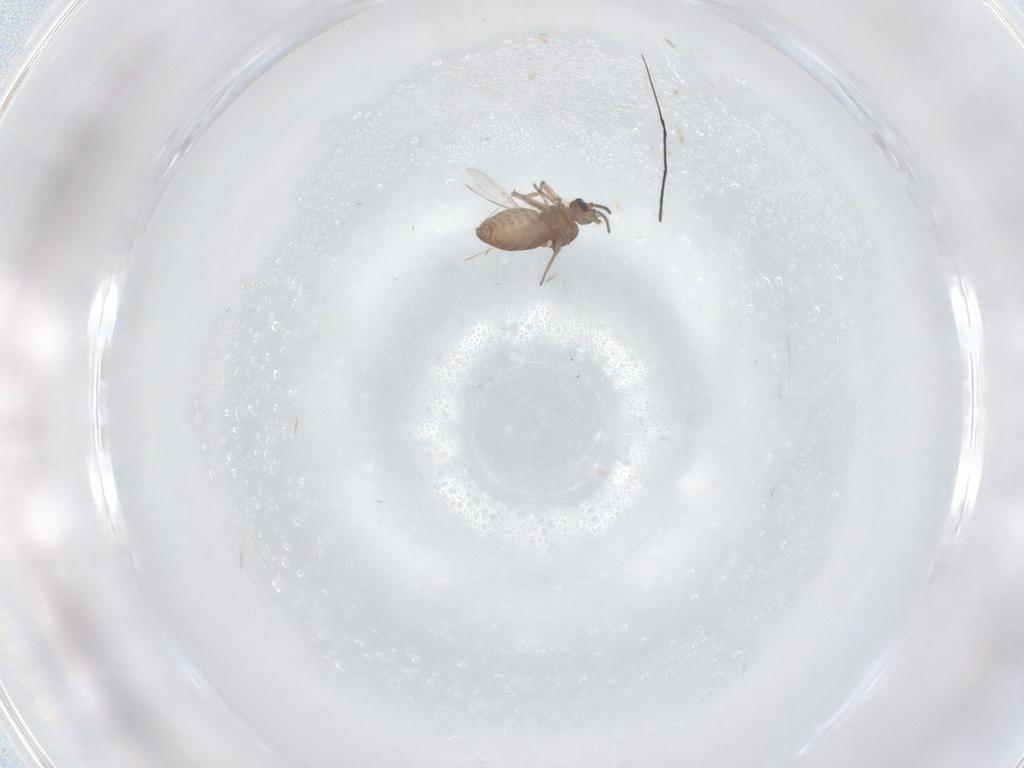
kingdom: Animalia
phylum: Arthropoda
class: Insecta
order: Diptera
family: Ceratopogonidae
